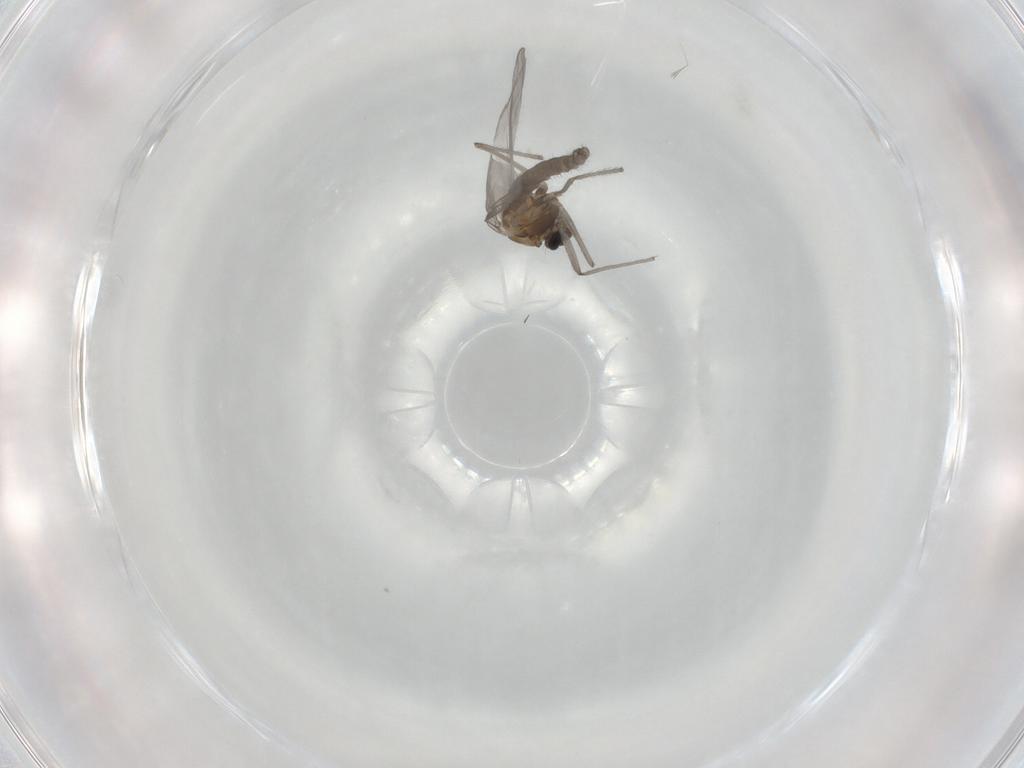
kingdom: Animalia
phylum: Arthropoda
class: Insecta
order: Diptera
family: Chironomidae
